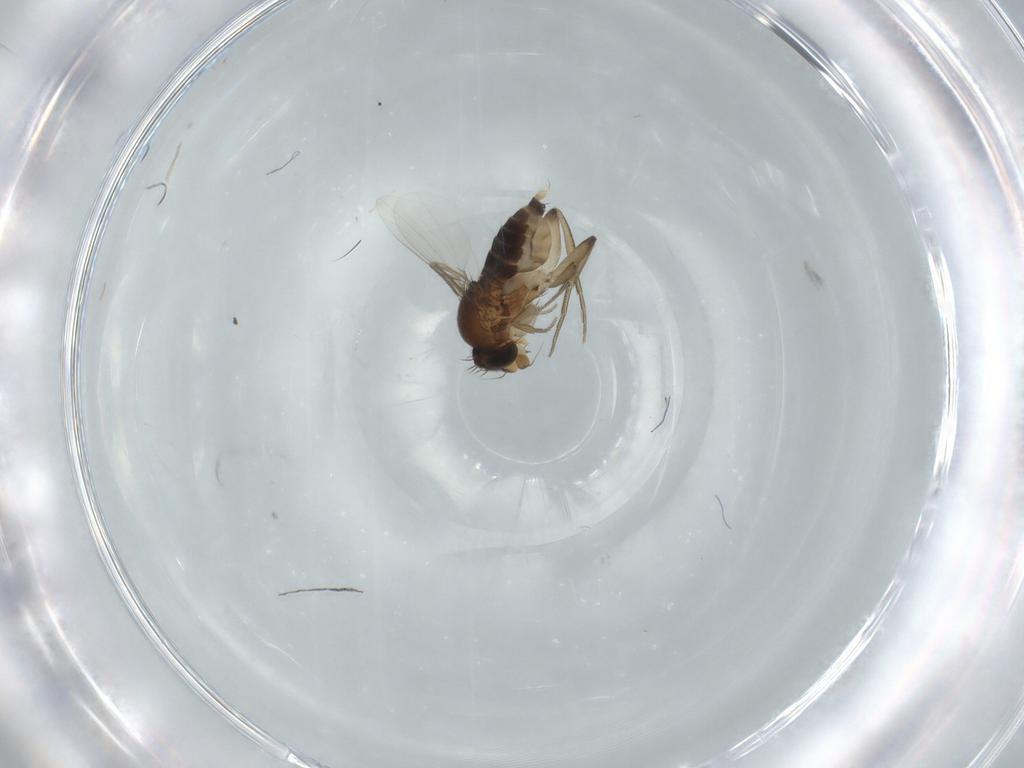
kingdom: Animalia
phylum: Arthropoda
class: Insecta
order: Diptera
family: Phoridae
